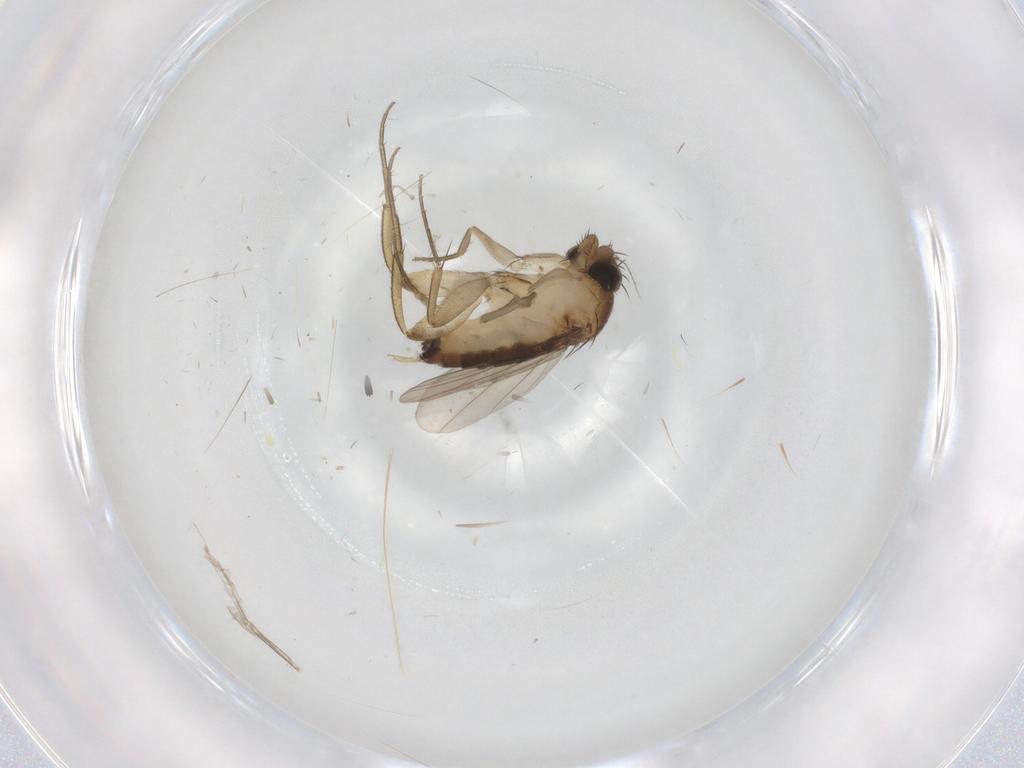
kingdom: Animalia
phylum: Arthropoda
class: Insecta
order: Diptera
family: Phoridae
